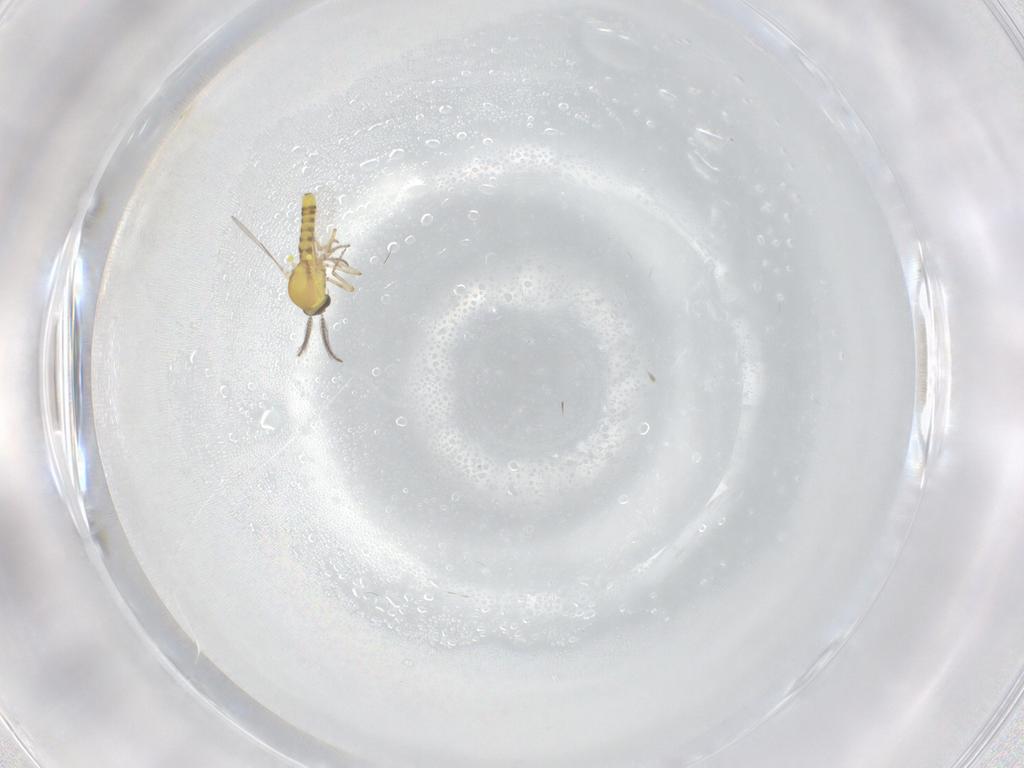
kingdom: Animalia
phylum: Arthropoda
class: Insecta
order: Diptera
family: Ceratopogonidae
